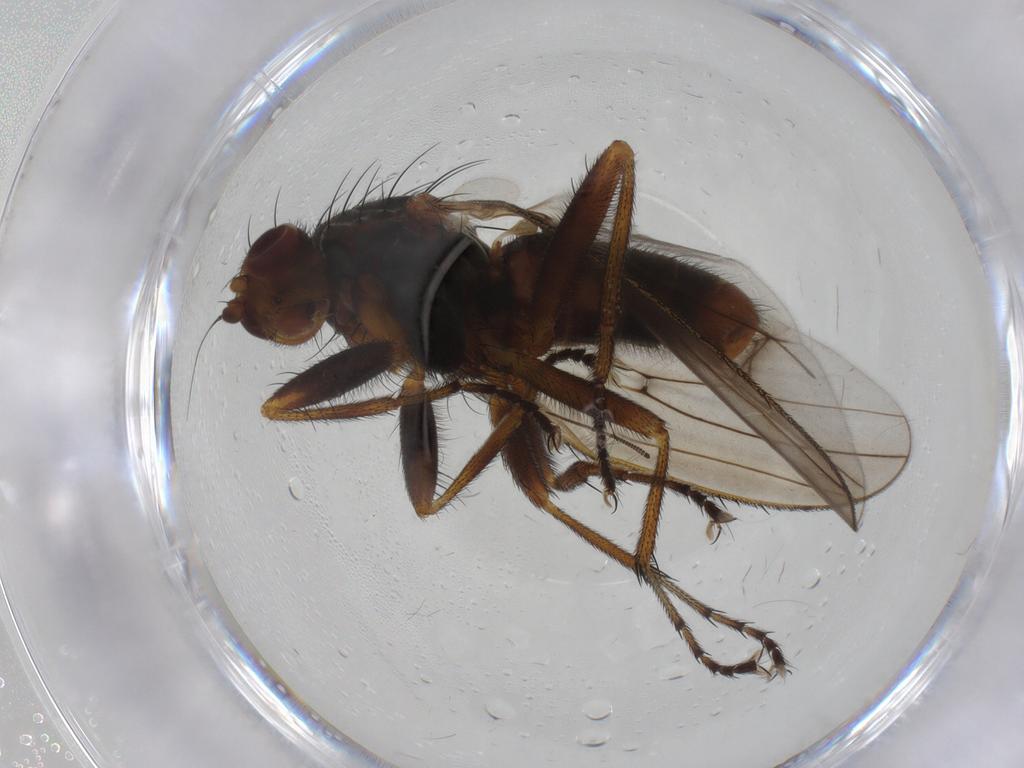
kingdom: Animalia
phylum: Arthropoda
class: Insecta
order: Diptera
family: Heleomyzidae
